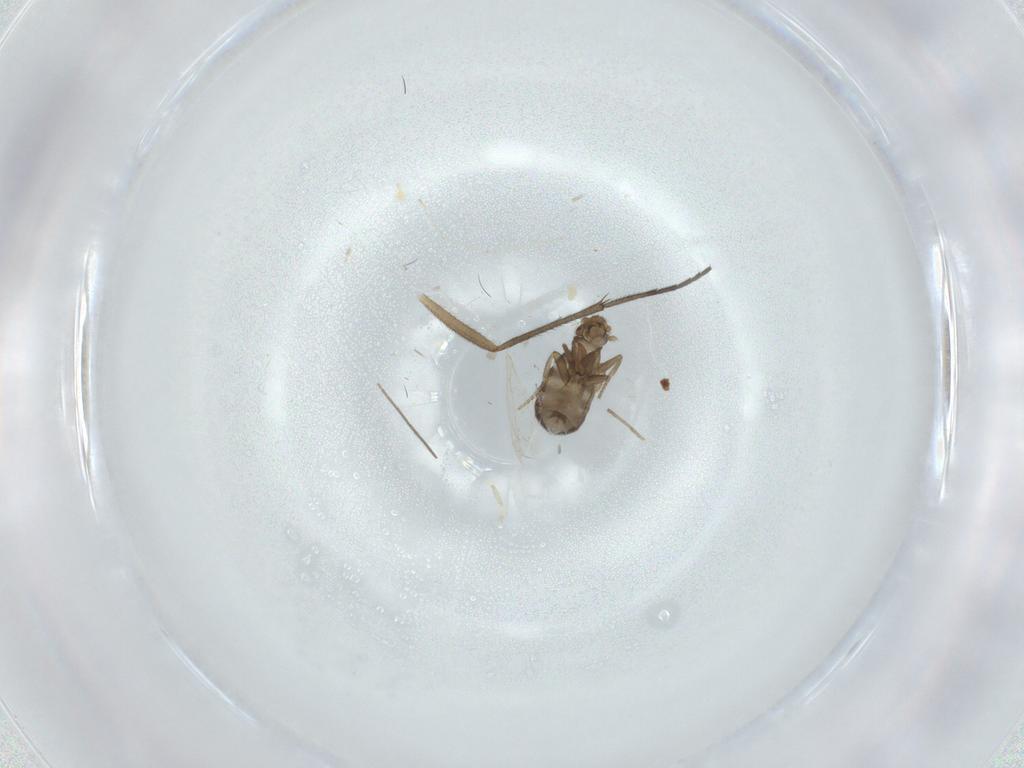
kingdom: Animalia
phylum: Arthropoda
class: Insecta
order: Diptera
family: Chironomidae
